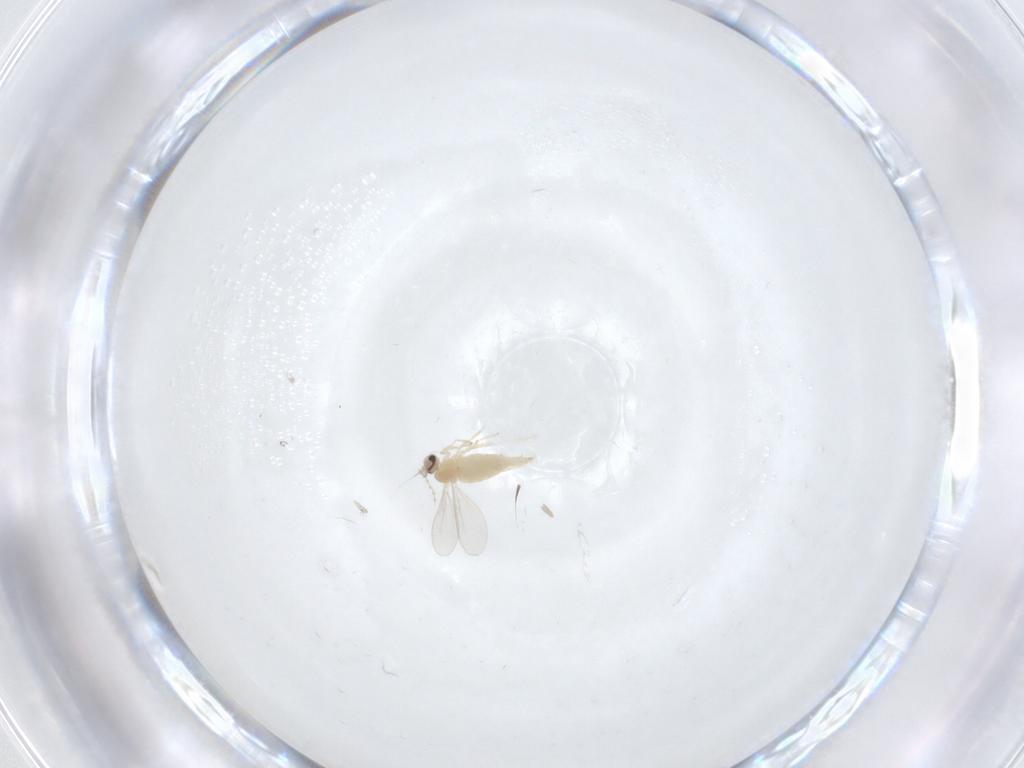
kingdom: Animalia
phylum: Arthropoda
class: Insecta
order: Diptera
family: Cecidomyiidae
